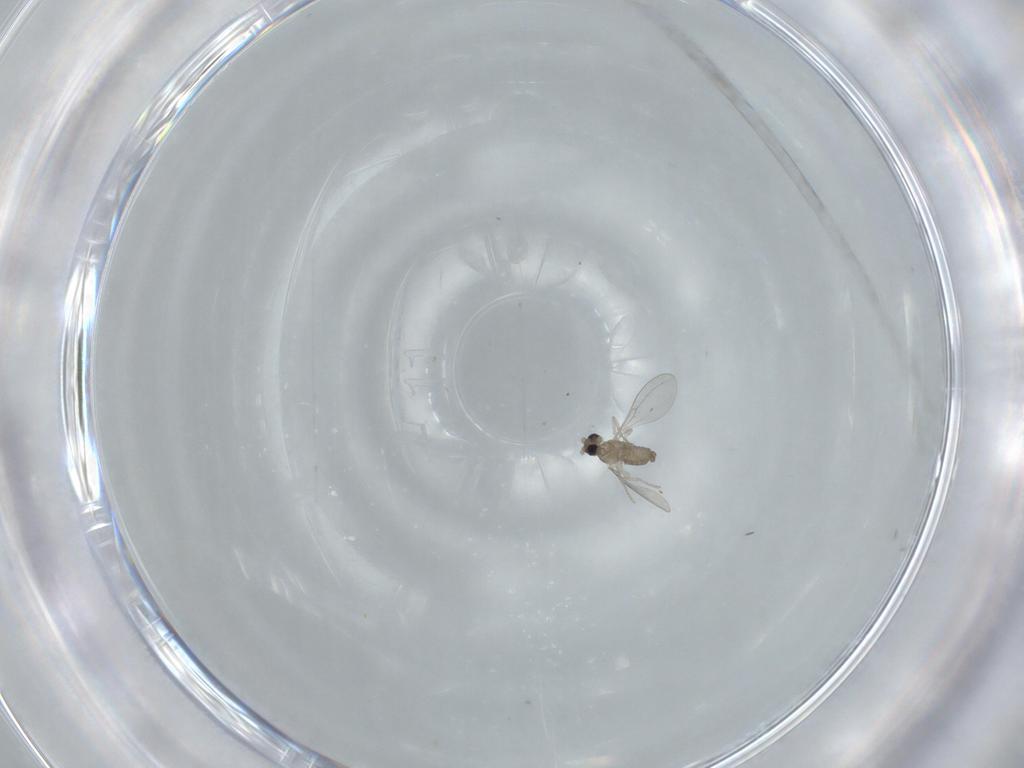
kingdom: Animalia
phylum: Arthropoda
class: Insecta
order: Diptera
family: Cecidomyiidae
